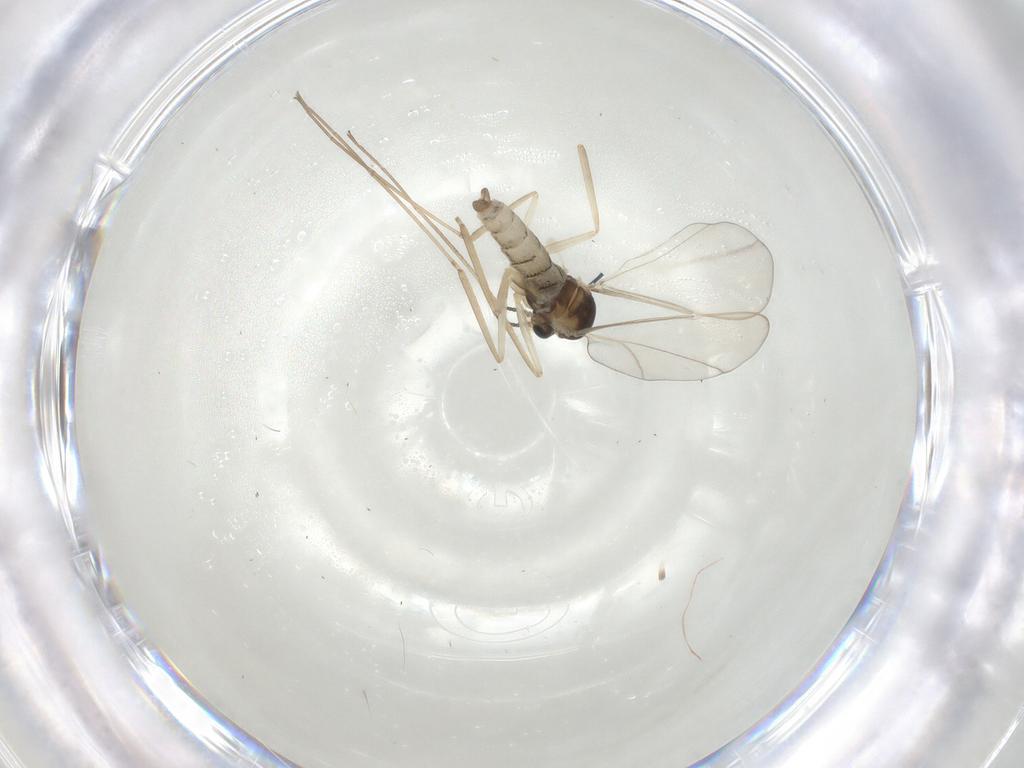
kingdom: Animalia
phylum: Arthropoda
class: Insecta
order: Diptera
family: Cecidomyiidae
